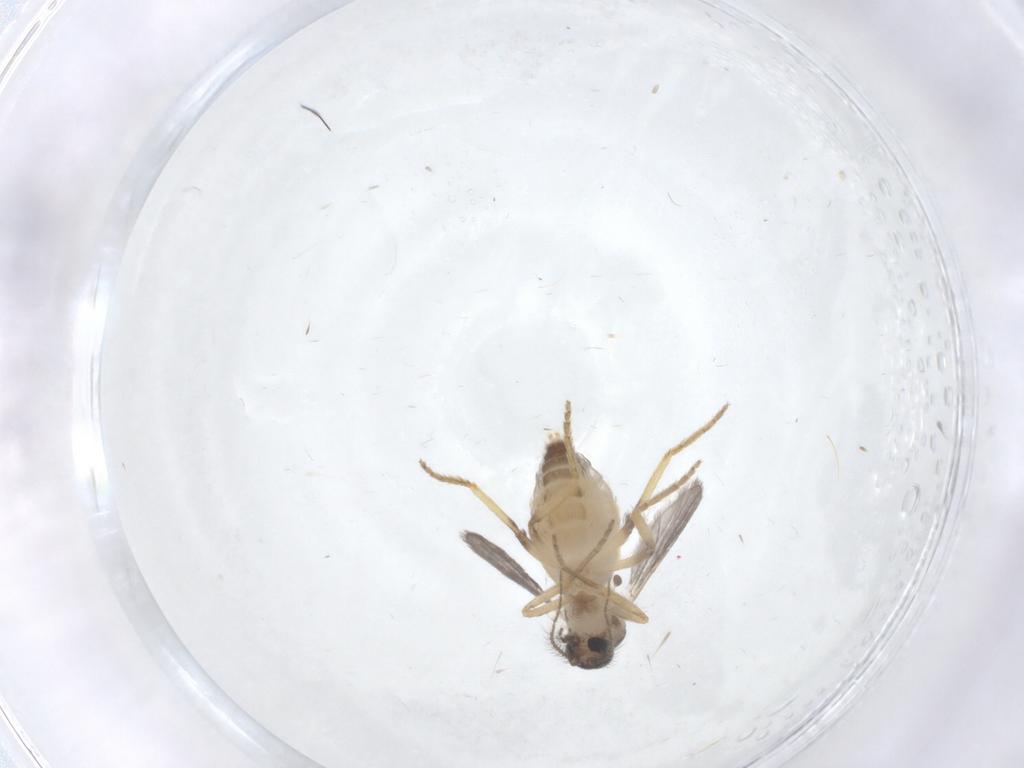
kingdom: Animalia
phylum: Arthropoda
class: Insecta
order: Diptera
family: Ceratopogonidae
